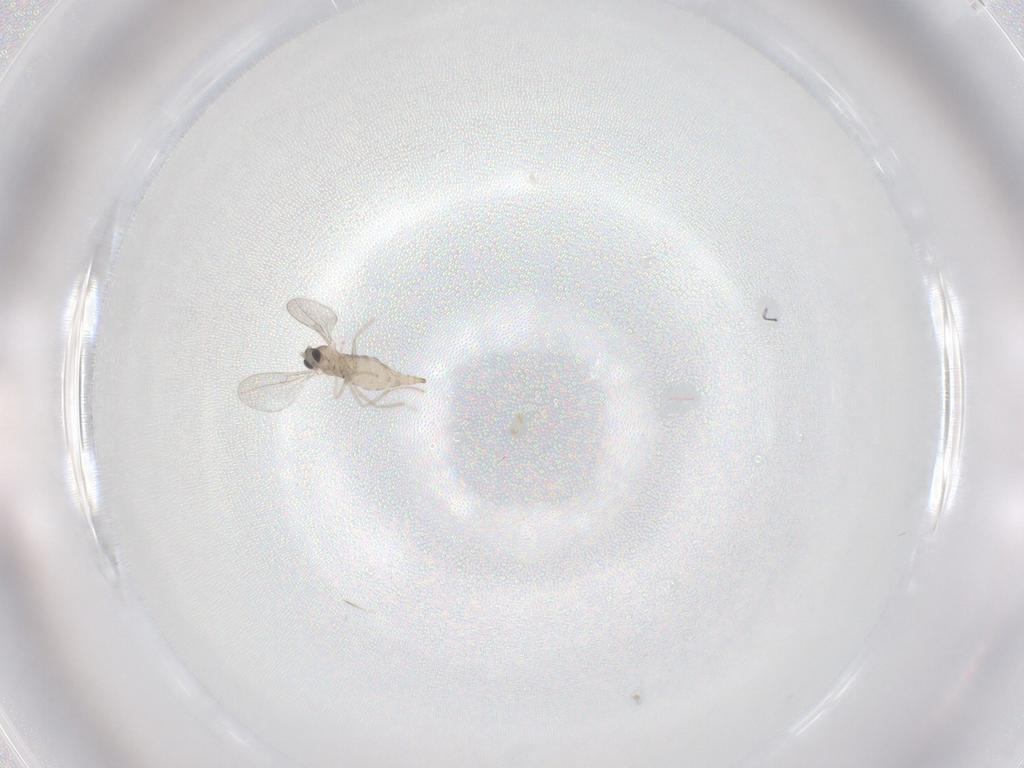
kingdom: Animalia
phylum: Arthropoda
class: Insecta
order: Diptera
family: Cecidomyiidae
